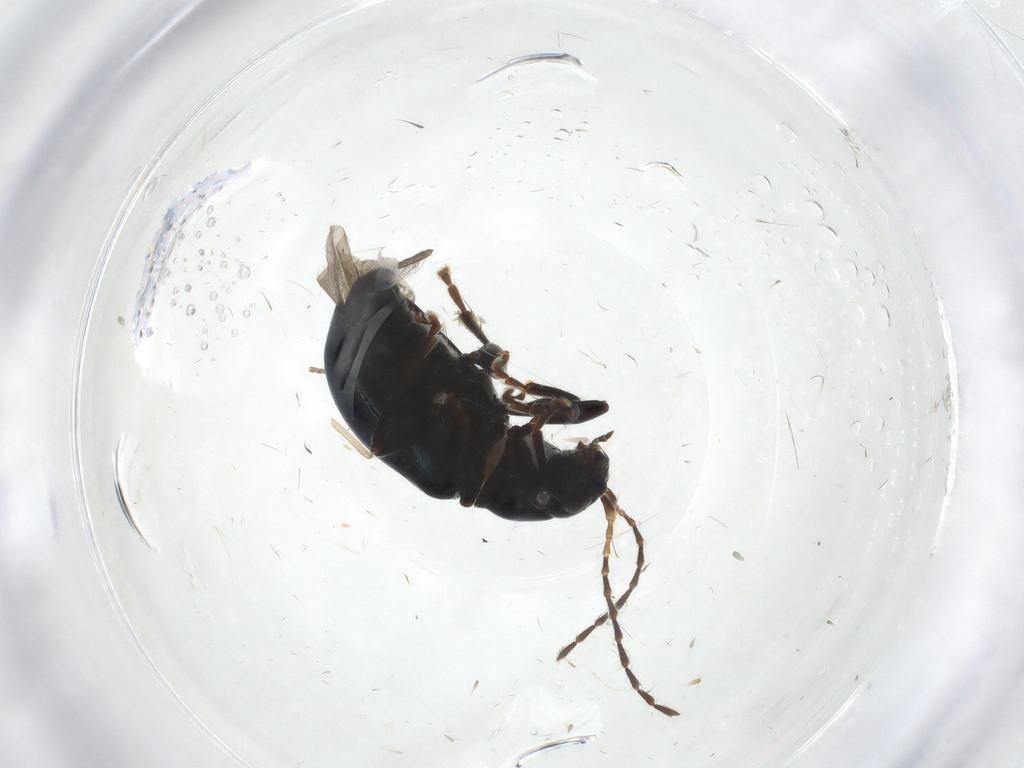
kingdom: Animalia
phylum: Arthropoda
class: Insecta
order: Coleoptera
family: Chrysomelidae
